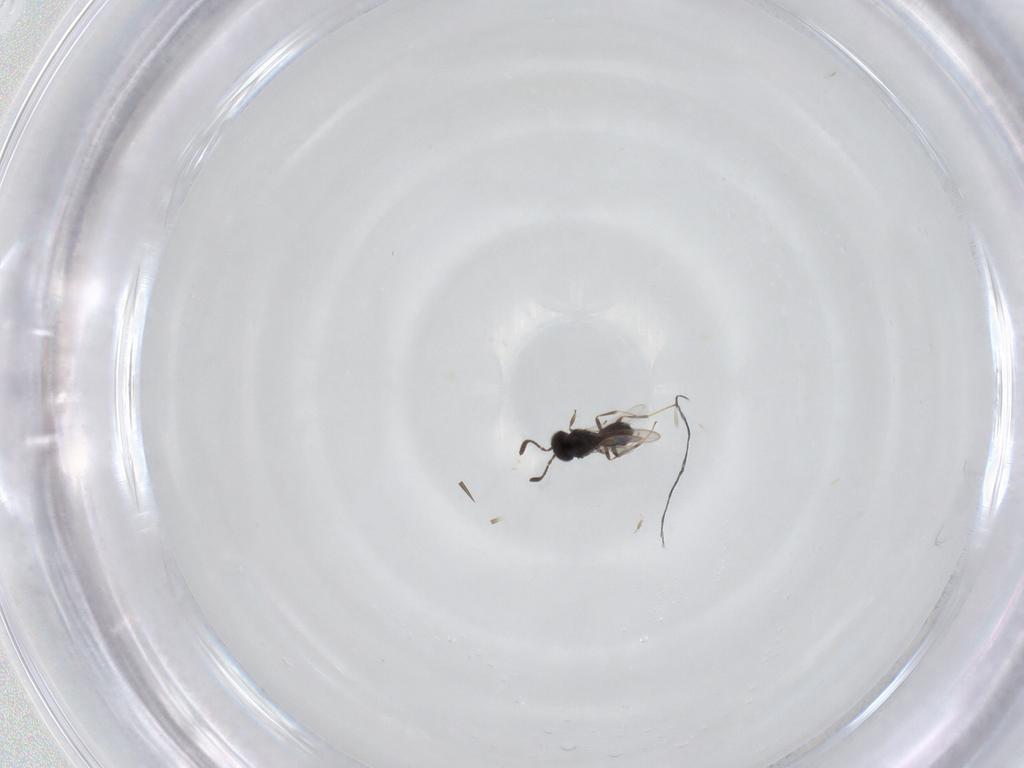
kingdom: Animalia
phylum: Arthropoda
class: Insecta
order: Hymenoptera
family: Scelionidae
